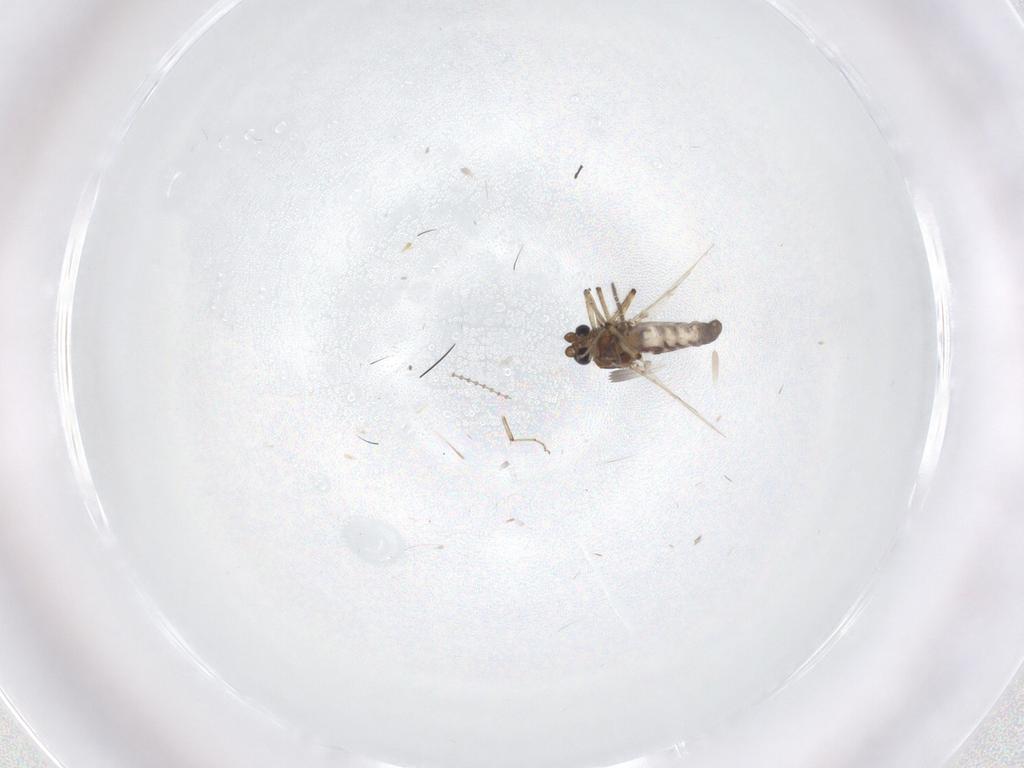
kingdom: Animalia
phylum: Arthropoda
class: Insecta
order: Diptera
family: Ceratopogonidae
